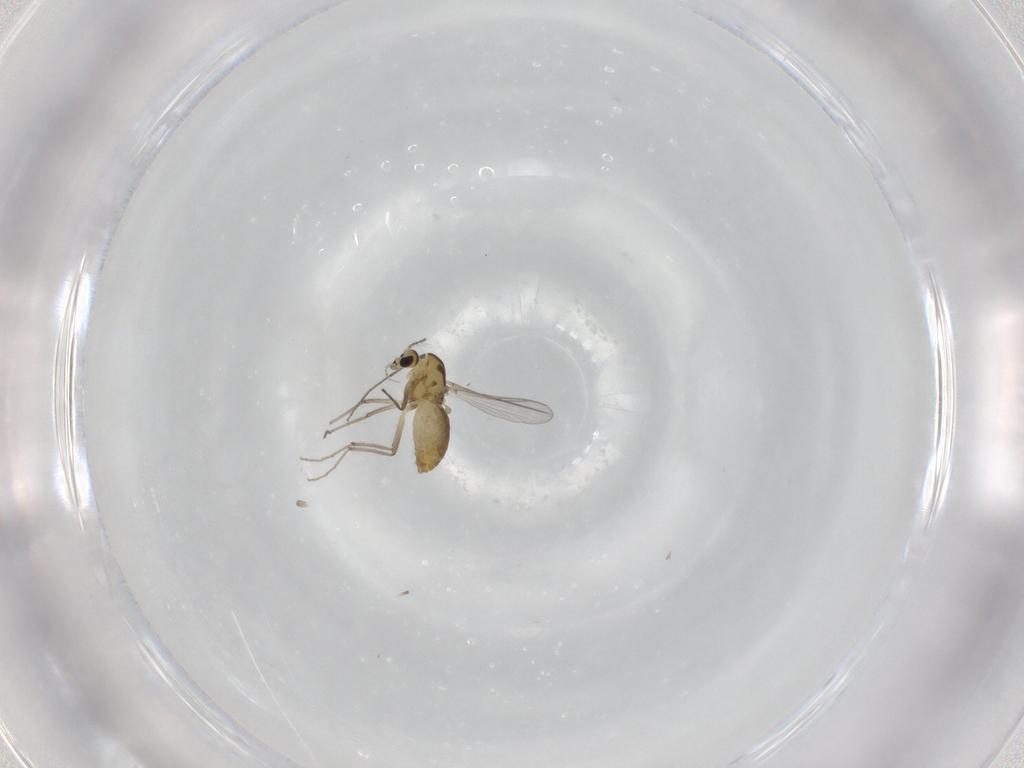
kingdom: Animalia
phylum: Arthropoda
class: Insecta
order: Diptera
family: Chironomidae
